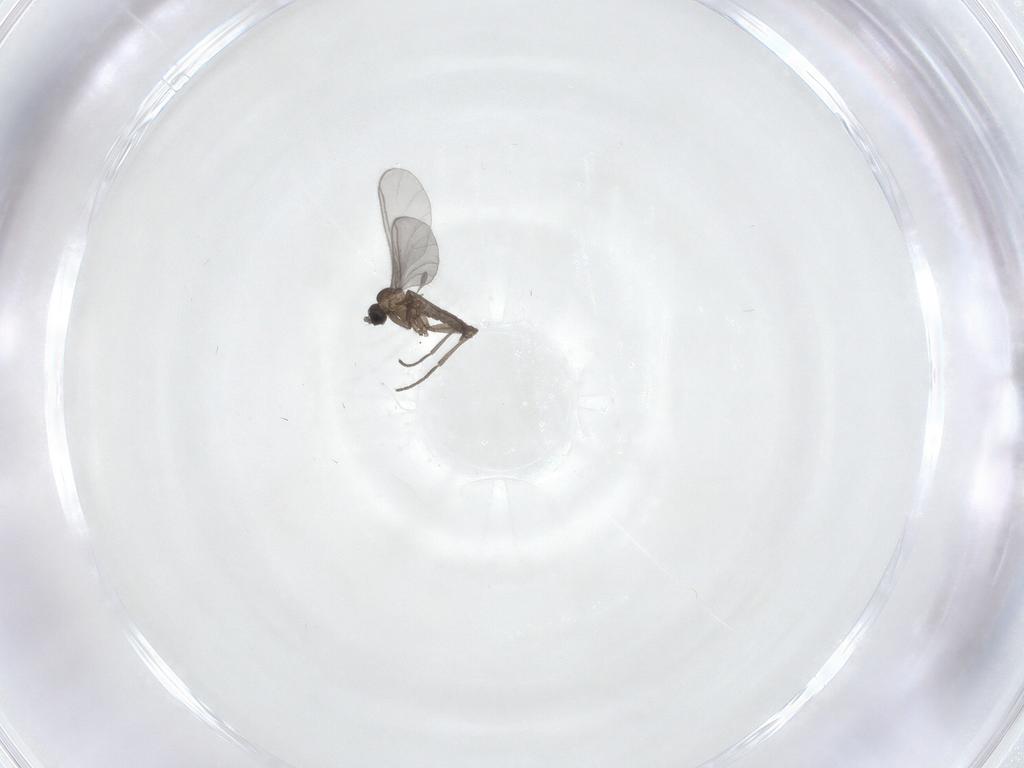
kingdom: Animalia
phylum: Arthropoda
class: Insecta
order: Diptera
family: Sciaridae
